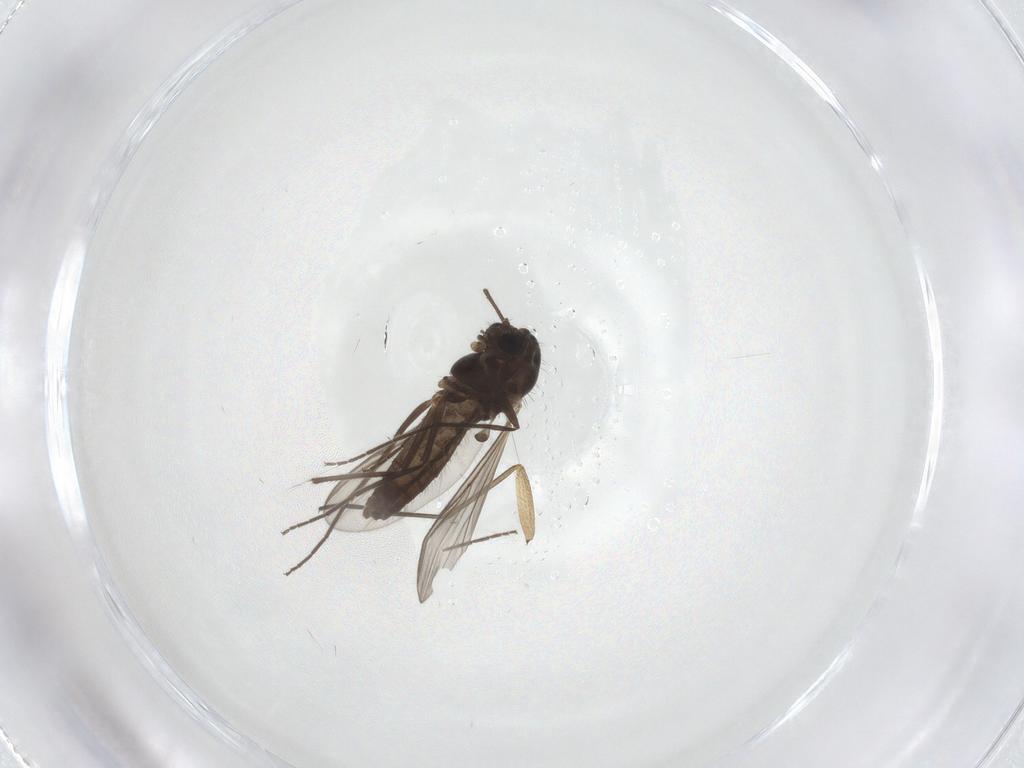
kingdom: Animalia
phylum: Arthropoda
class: Insecta
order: Diptera
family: Chironomidae
